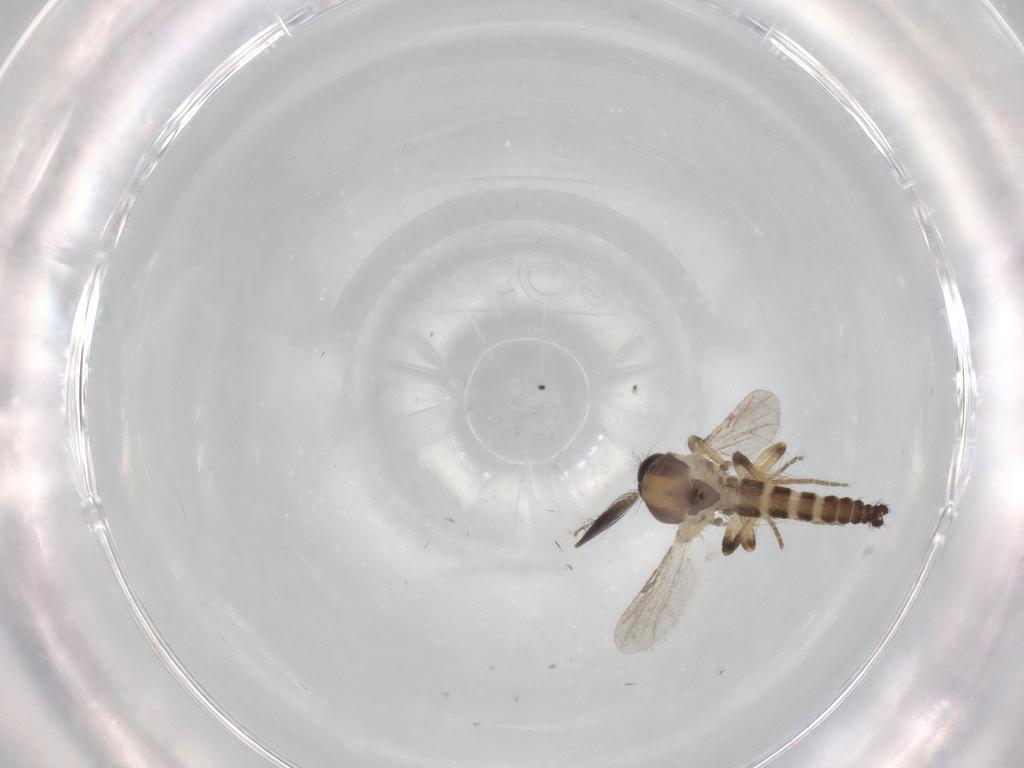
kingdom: Animalia
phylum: Arthropoda
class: Insecta
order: Diptera
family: Ceratopogonidae
